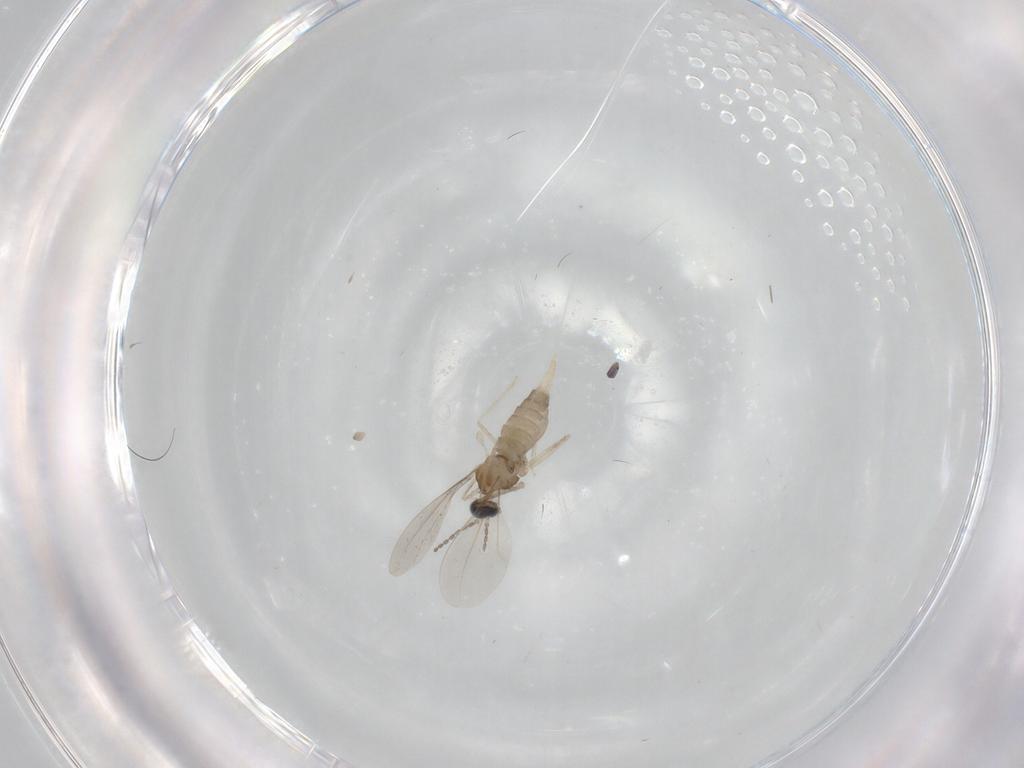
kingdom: Animalia
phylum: Arthropoda
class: Insecta
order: Diptera
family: Cecidomyiidae
